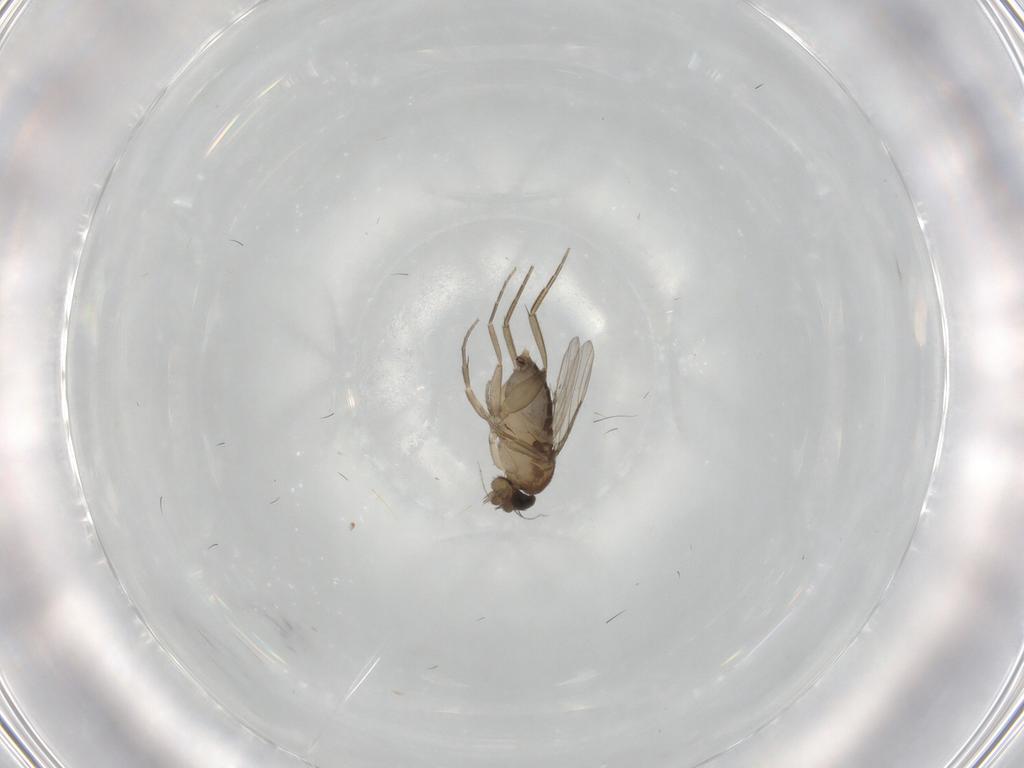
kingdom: Animalia
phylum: Arthropoda
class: Insecta
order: Diptera
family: Phoridae
